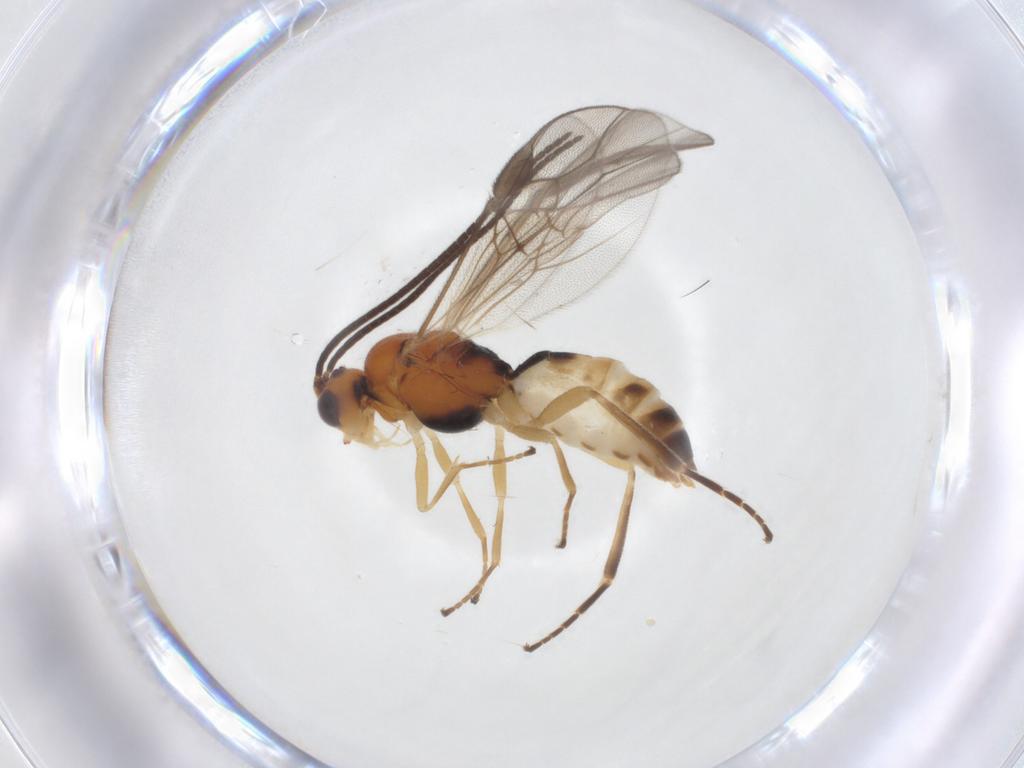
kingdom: Animalia
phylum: Arthropoda
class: Insecta
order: Hymenoptera
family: Braconidae
